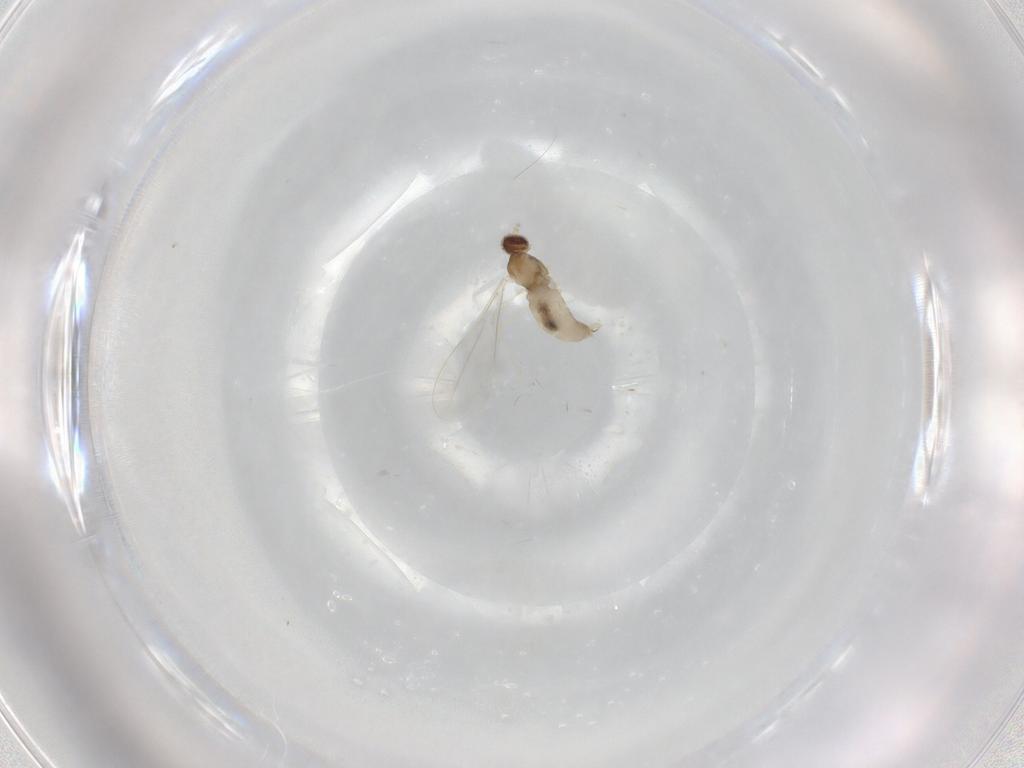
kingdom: Animalia
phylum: Arthropoda
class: Insecta
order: Diptera
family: Cecidomyiidae
